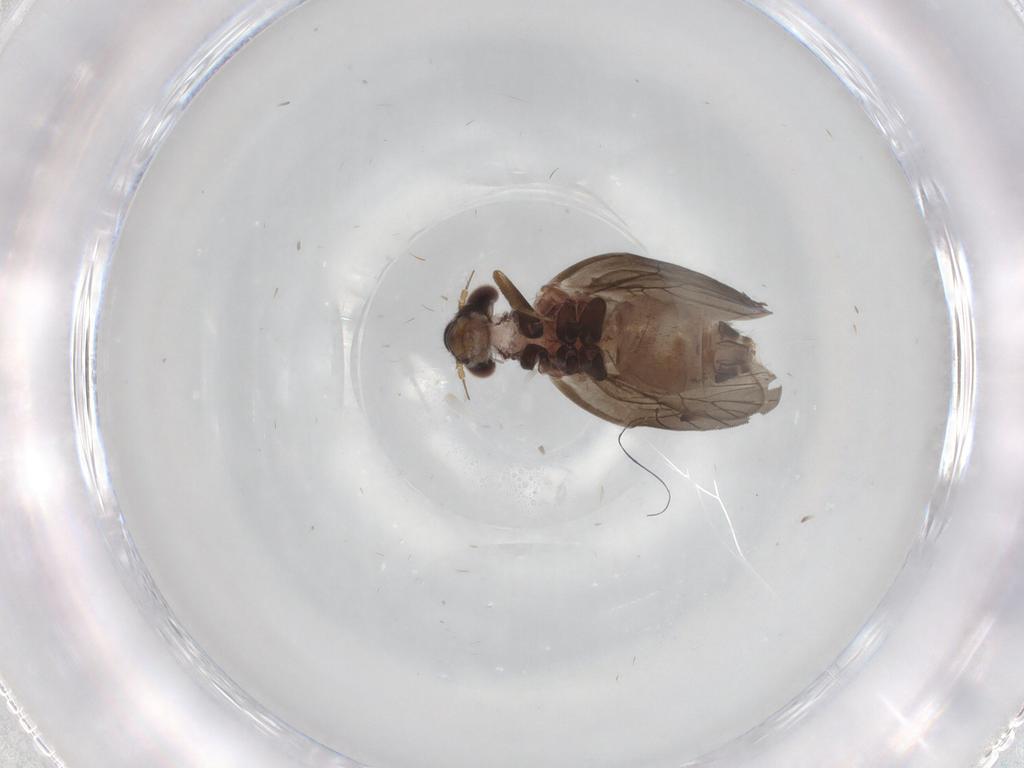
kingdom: Animalia
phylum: Arthropoda
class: Insecta
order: Psocodea
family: Lepidopsocidae
